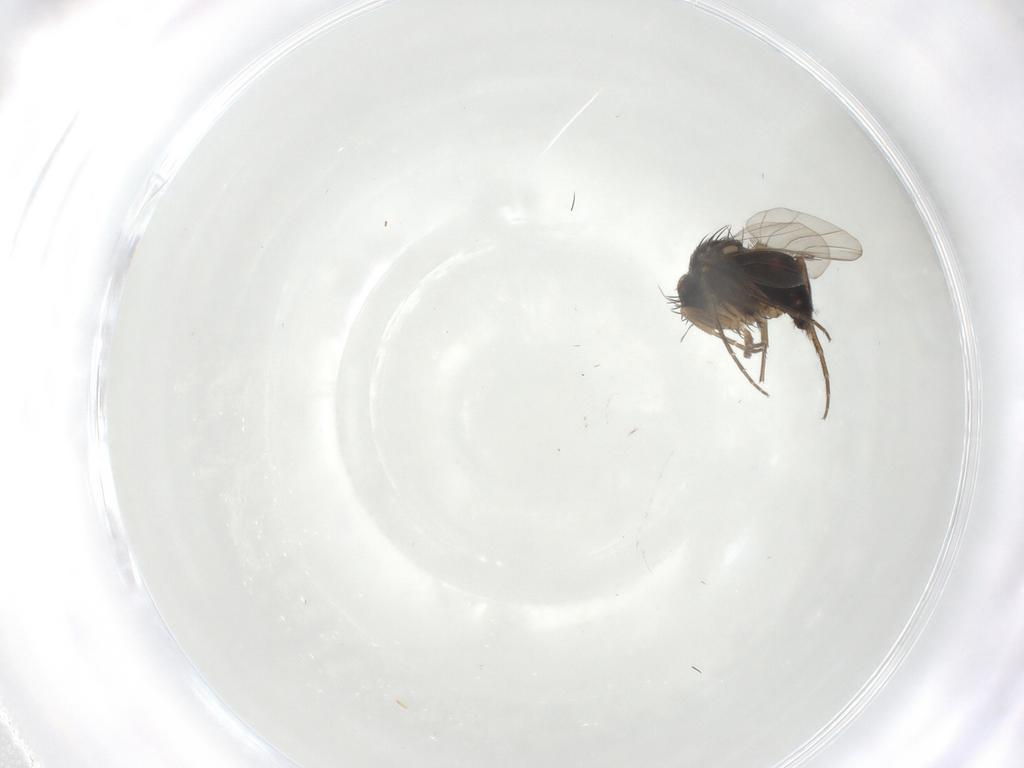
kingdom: Animalia
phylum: Arthropoda
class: Insecta
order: Diptera
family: Phoridae
